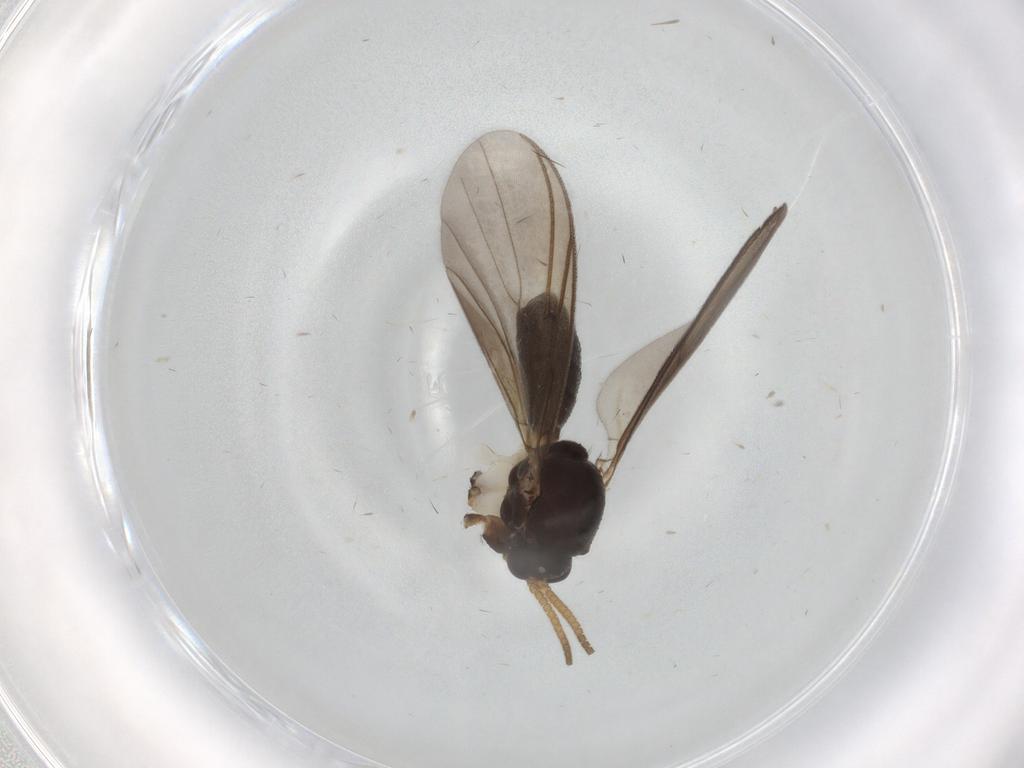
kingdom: Animalia
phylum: Arthropoda
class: Insecta
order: Diptera
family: Mycetophilidae
